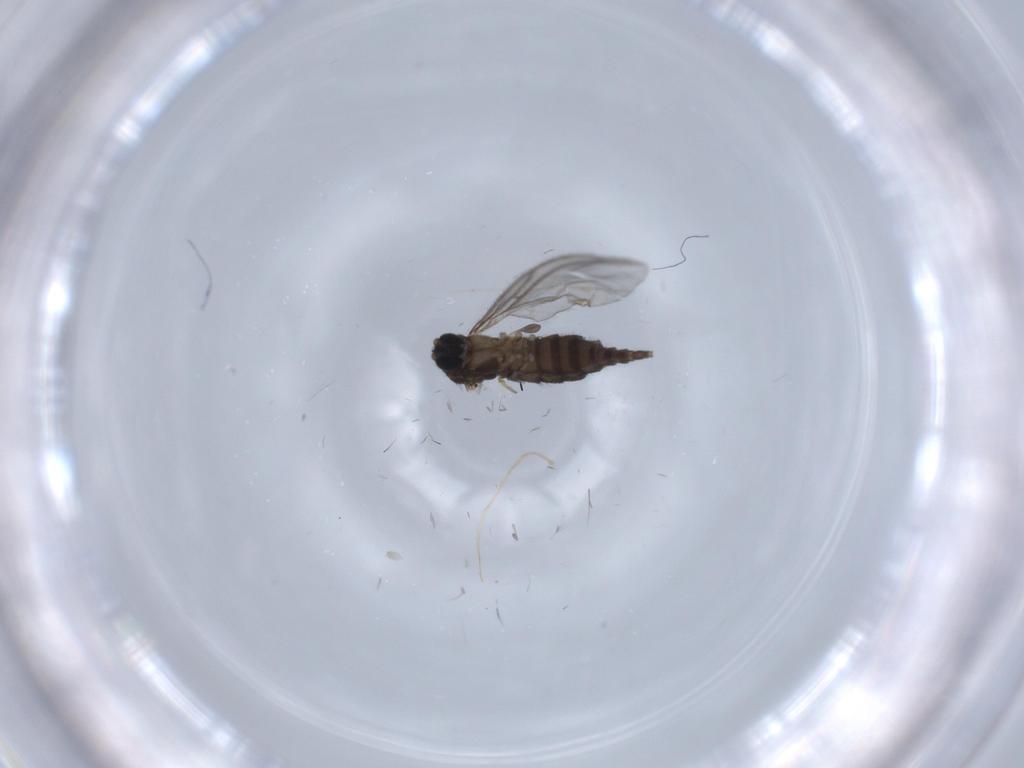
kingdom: Animalia
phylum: Arthropoda
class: Insecta
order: Diptera
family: Sciaridae
